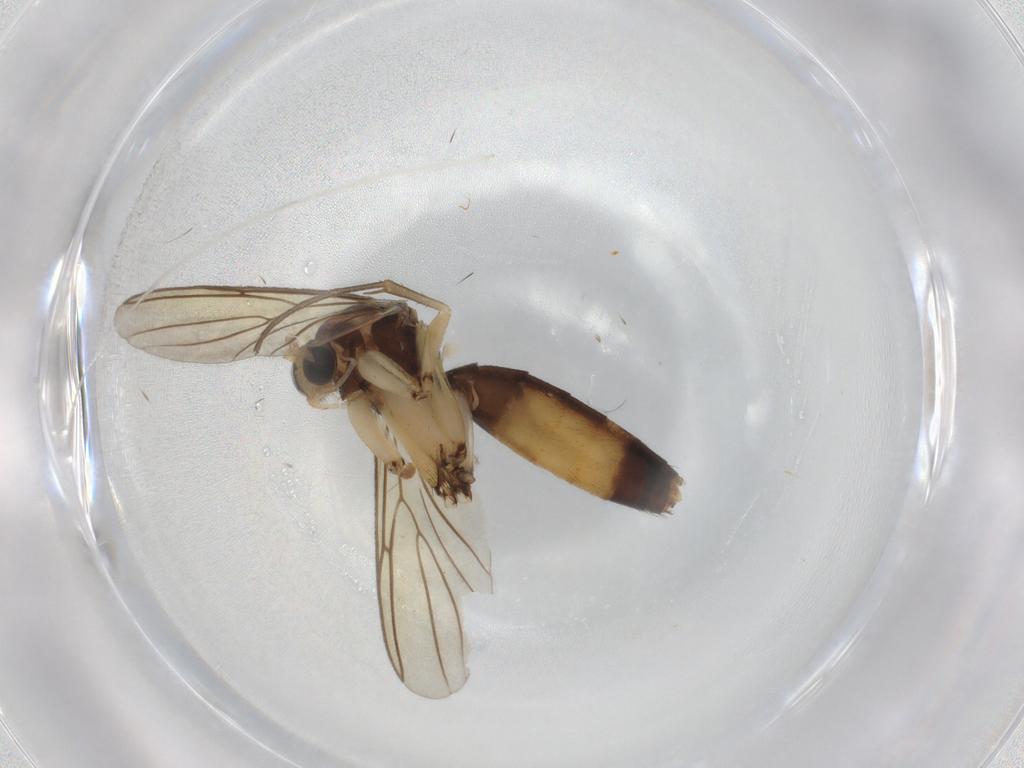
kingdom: Animalia
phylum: Arthropoda
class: Insecta
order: Diptera
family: Mycetophilidae
